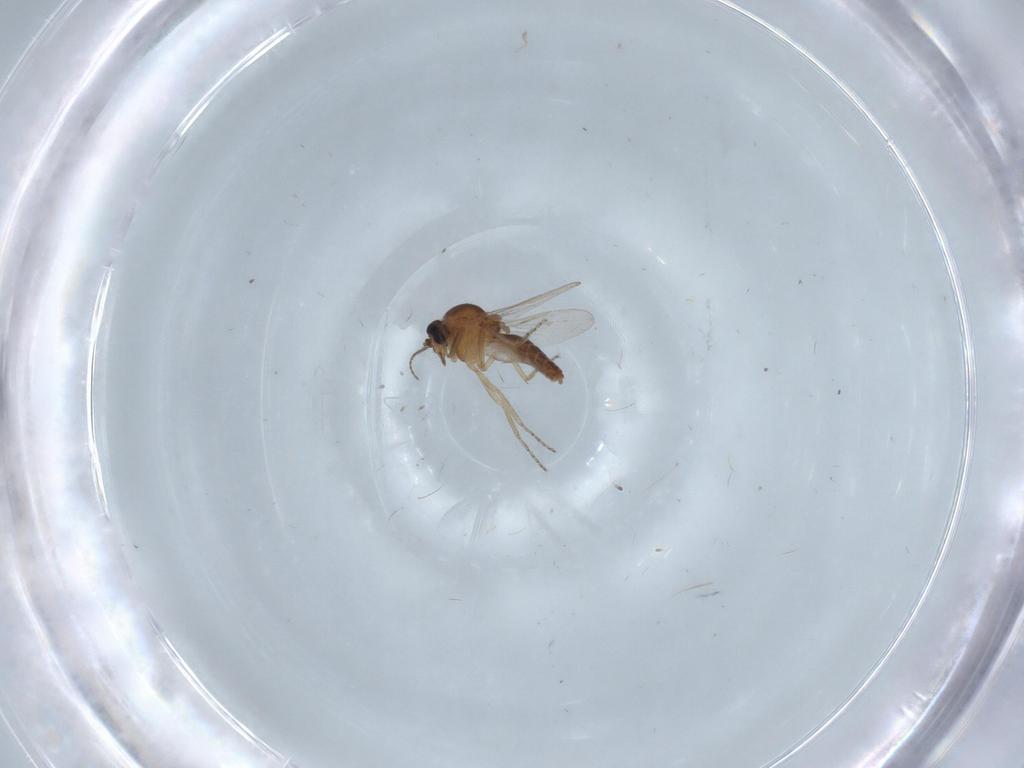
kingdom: Animalia
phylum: Arthropoda
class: Insecta
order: Diptera
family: Ceratopogonidae
